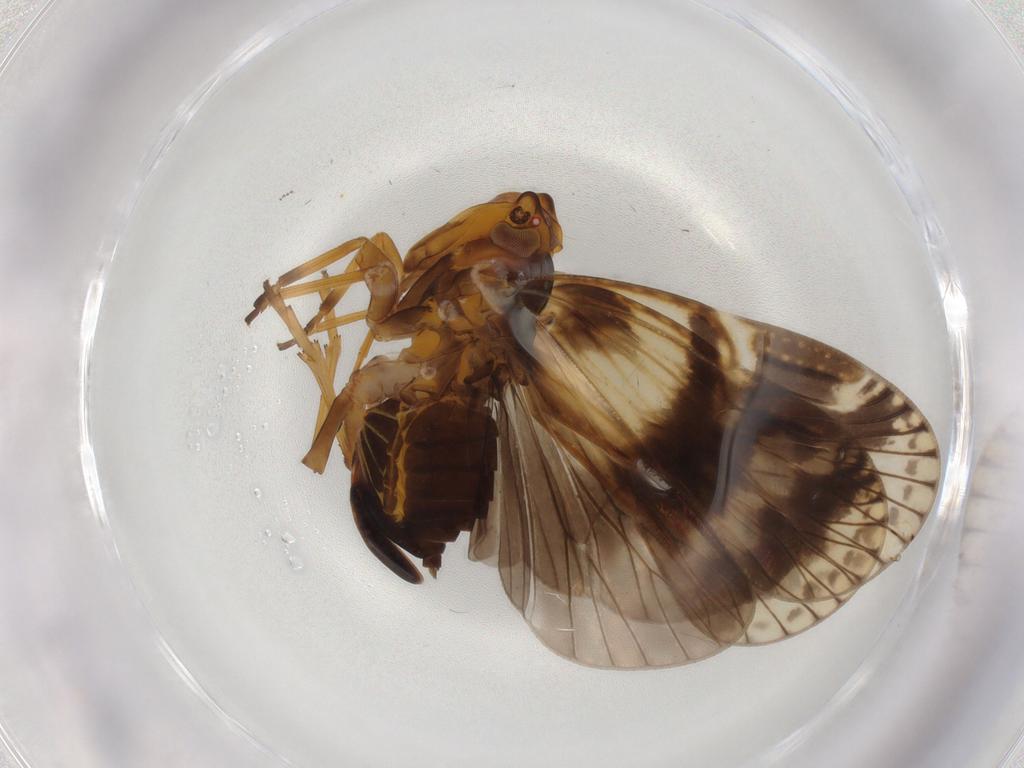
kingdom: Animalia
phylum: Arthropoda
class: Insecta
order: Hemiptera
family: Cixiidae
